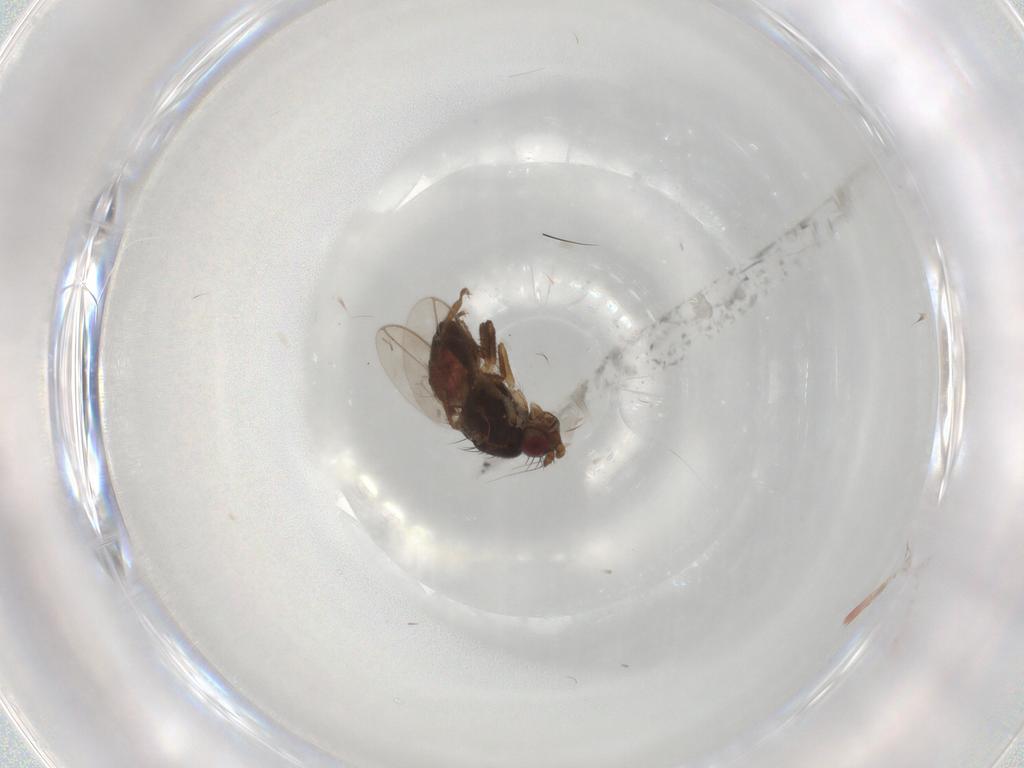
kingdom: Animalia
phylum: Arthropoda
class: Insecta
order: Diptera
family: Sphaeroceridae
